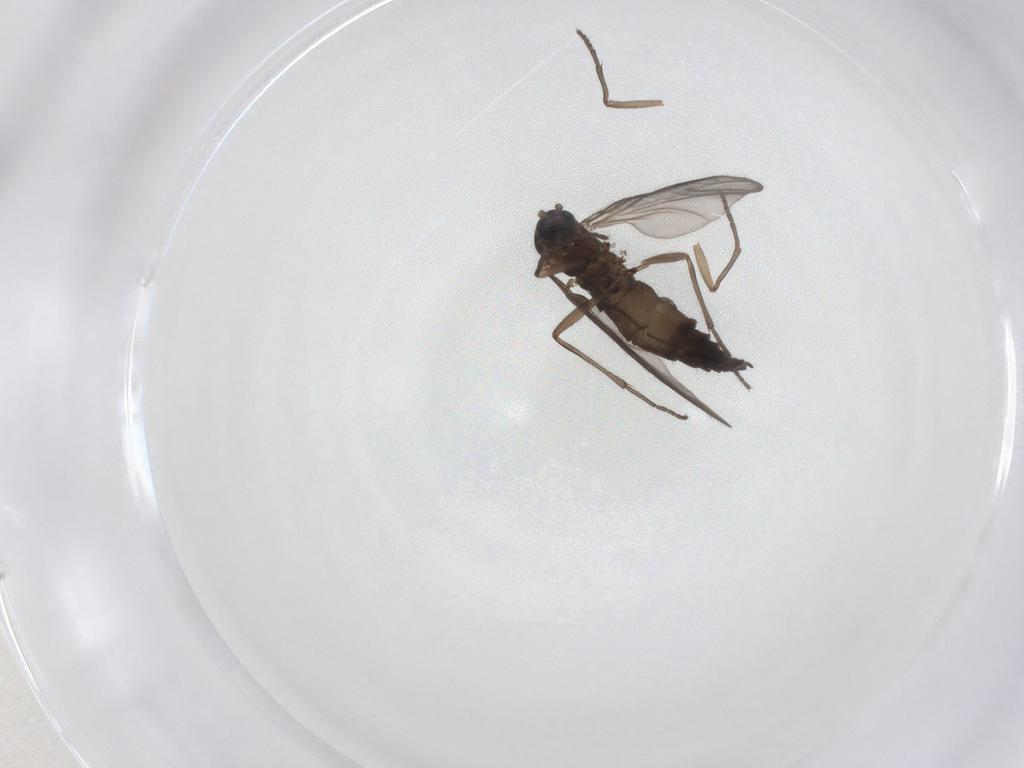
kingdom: Animalia
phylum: Arthropoda
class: Insecta
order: Diptera
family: Sciaridae
